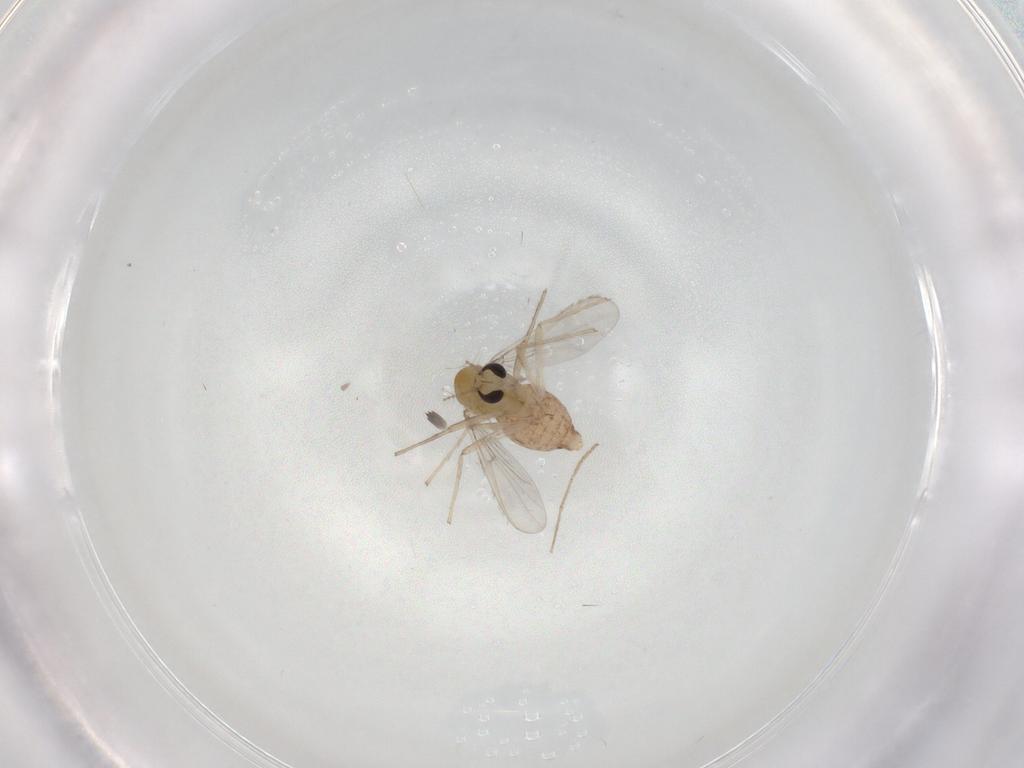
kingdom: Animalia
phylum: Arthropoda
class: Insecta
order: Diptera
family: Chironomidae
